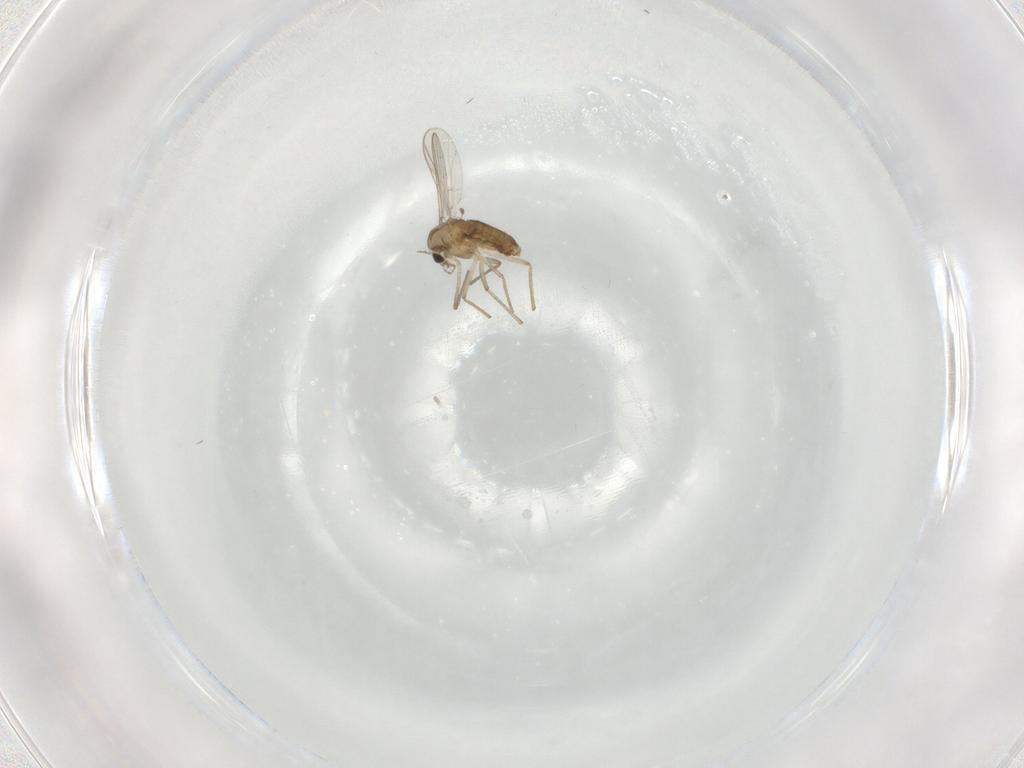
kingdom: Animalia
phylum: Arthropoda
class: Insecta
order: Diptera
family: Chironomidae
